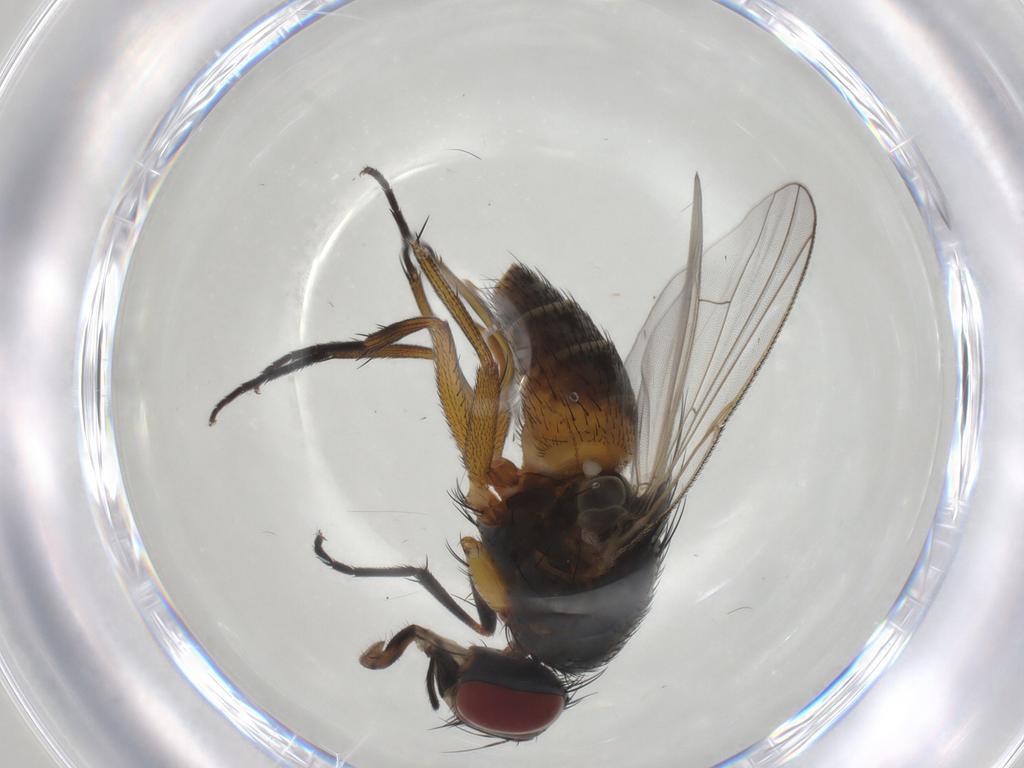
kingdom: Animalia
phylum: Arthropoda
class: Insecta
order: Diptera
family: Muscidae
